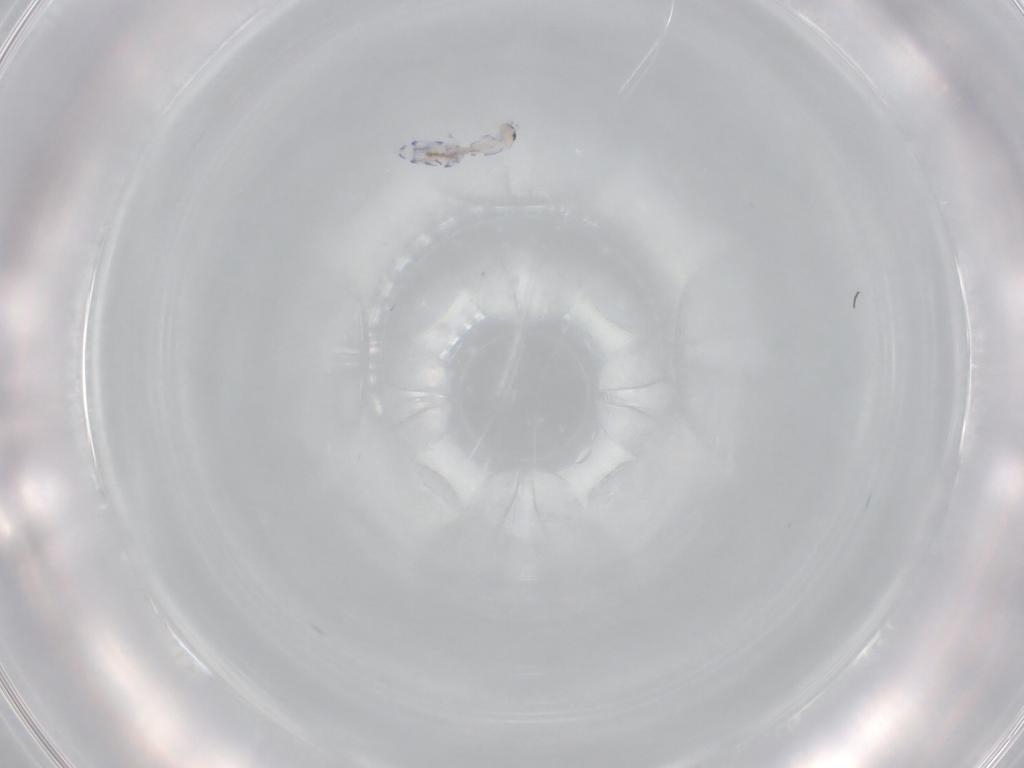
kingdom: Animalia
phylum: Arthropoda
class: Collembola
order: Entomobryomorpha
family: Entomobryidae
